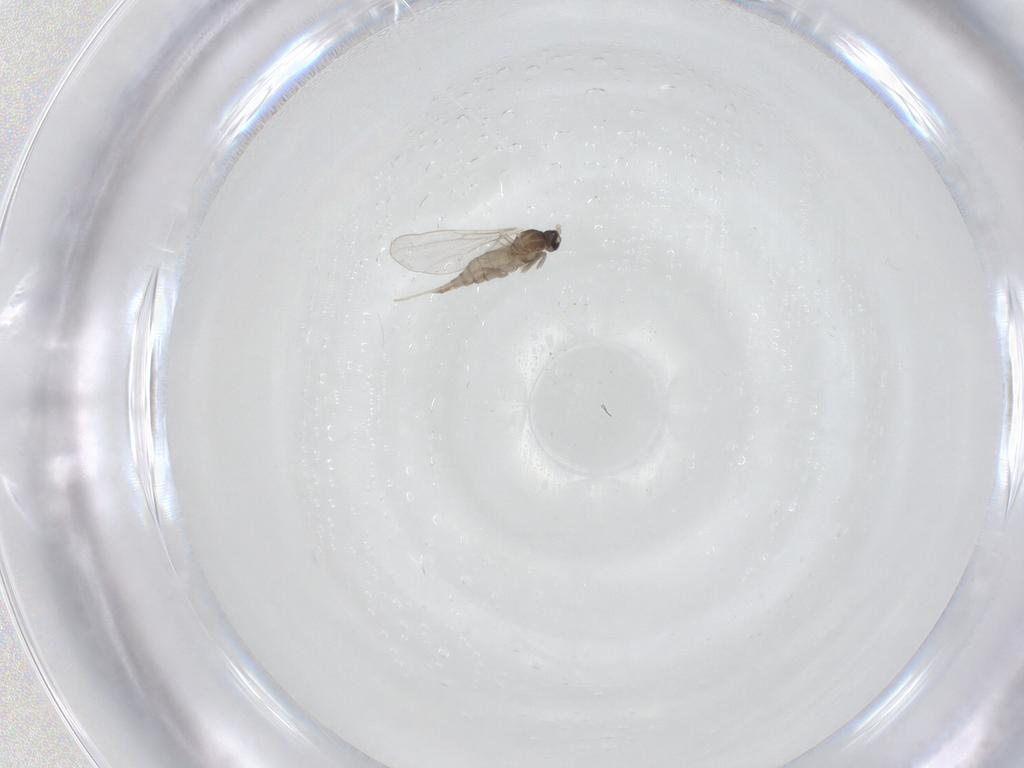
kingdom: Animalia
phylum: Arthropoda
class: Insecta
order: Diptera
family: Cecidomyiidae
